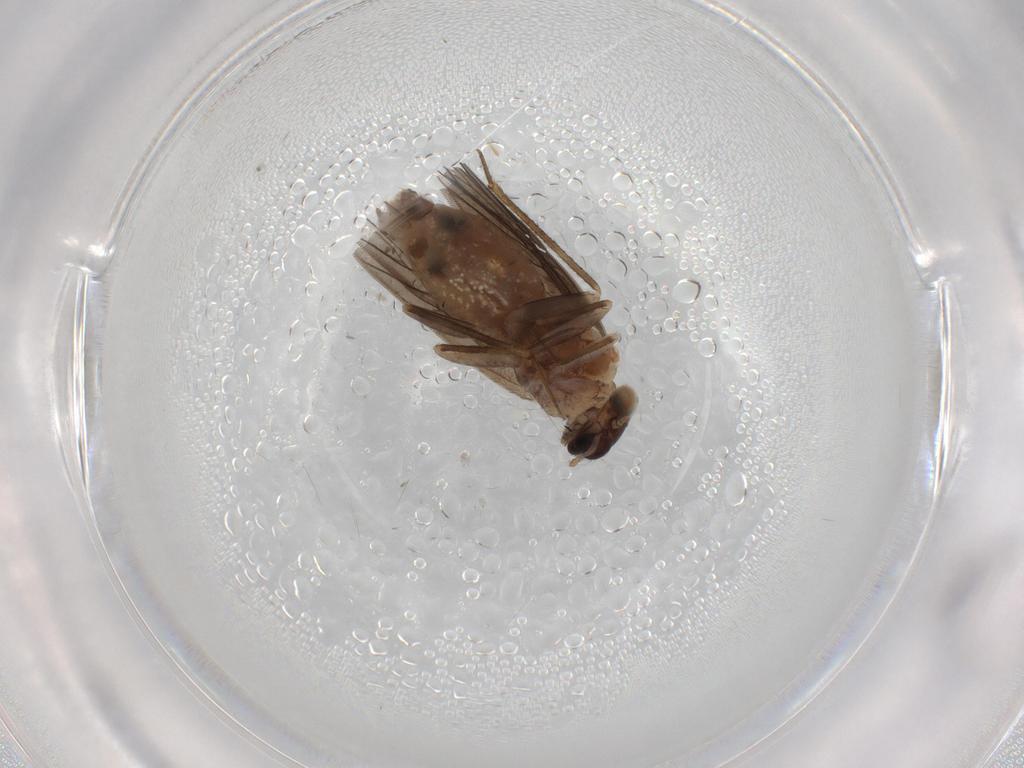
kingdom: Animalia
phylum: Arthropoda
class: Insecta
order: Psocodea
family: Lepidopsocidae
